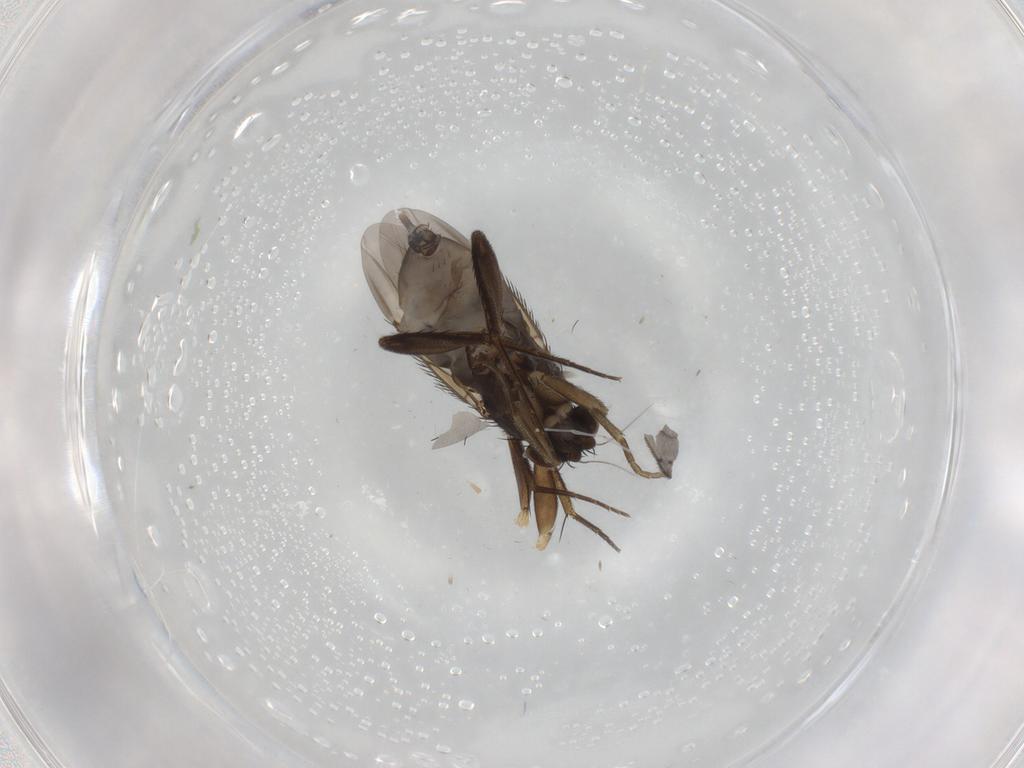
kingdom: Animalia
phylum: Arthropoda
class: Insecta
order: Diptera
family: Phoridae
